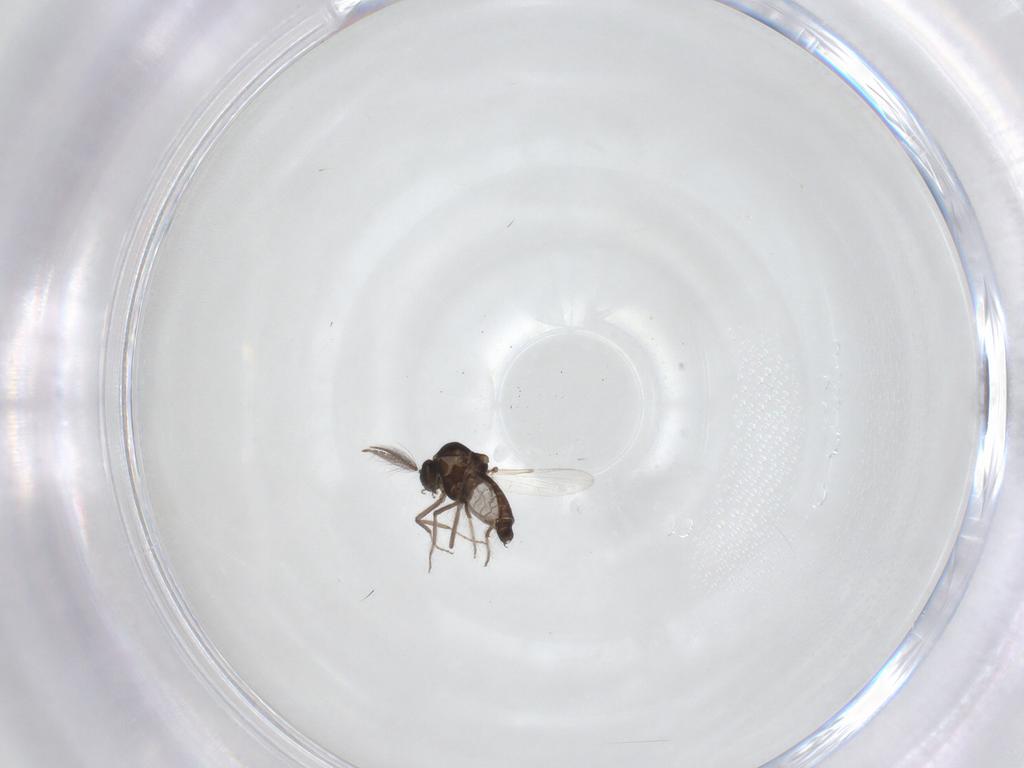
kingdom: Animalia
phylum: Arthropoda
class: Insecta
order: Diptera
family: Ceratopogonidae
